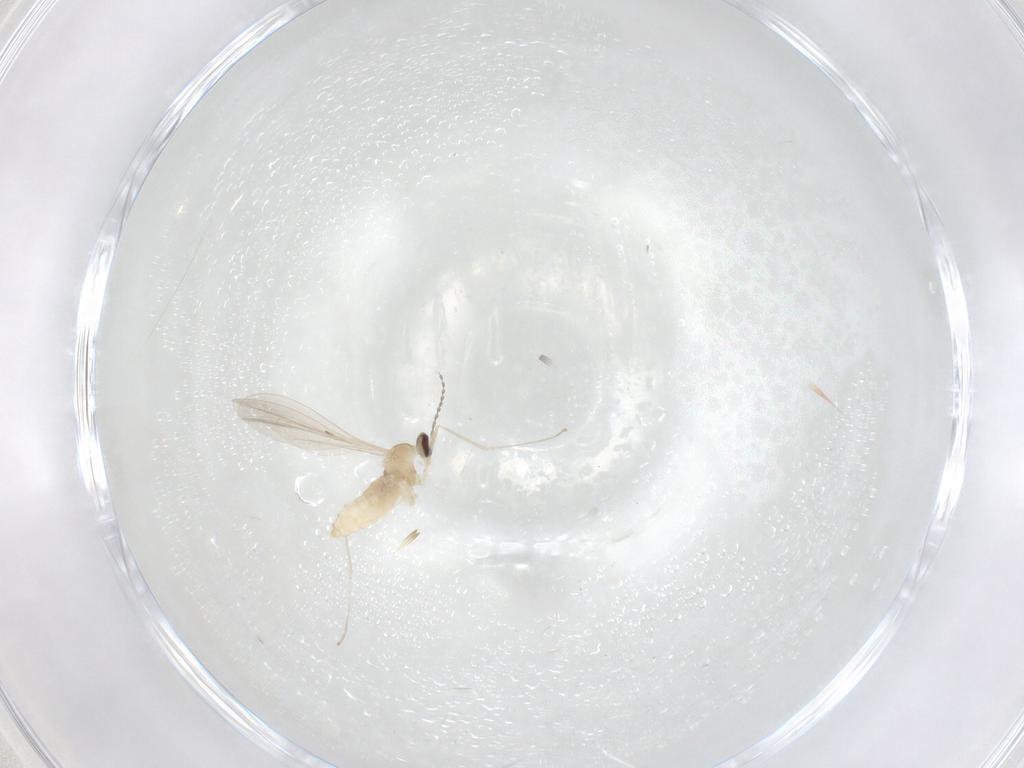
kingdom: Animalia
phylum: Arthropoda
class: Insecta
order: Diptera
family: Cecidomyiidae
